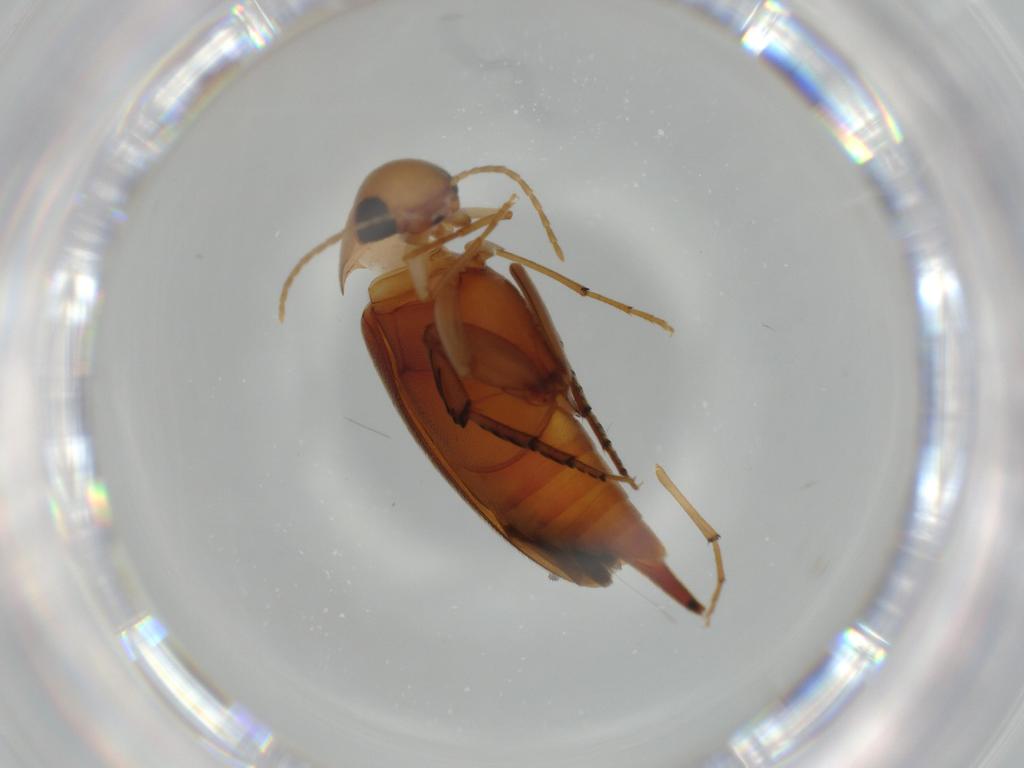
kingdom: Animalia
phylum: Arthropoda
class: Insecta
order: Coleoptera
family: Laemophloeidae
